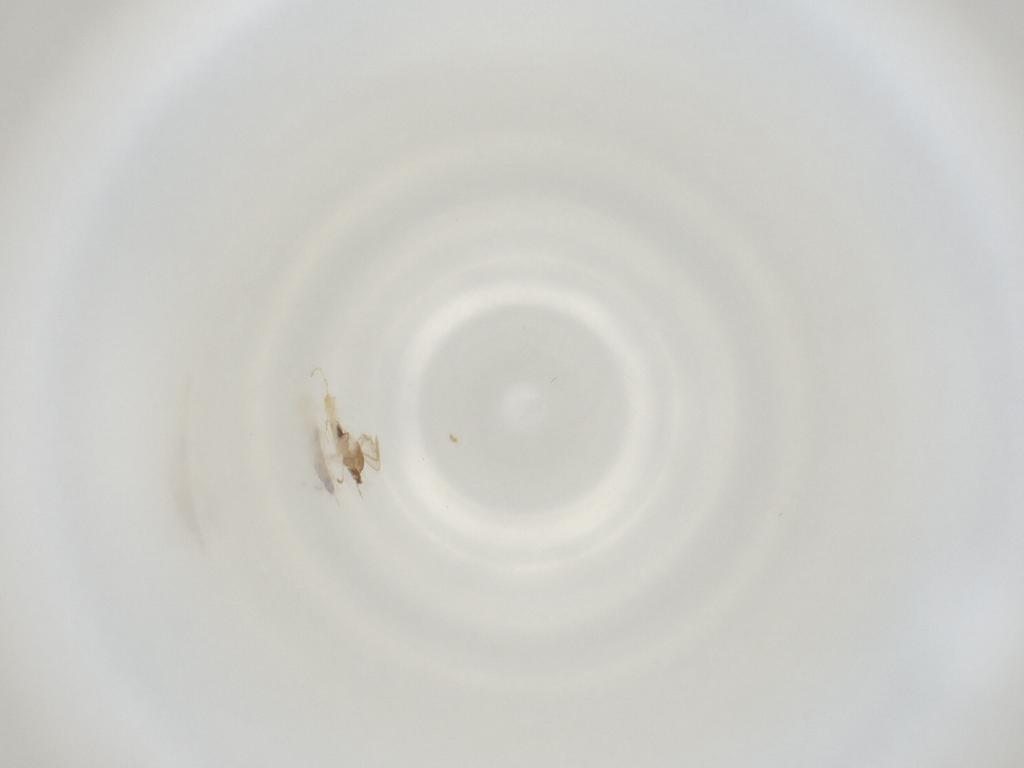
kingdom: Animalia
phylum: Arthropoda
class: Insecta
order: Diptera
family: Cecidomyiidae
